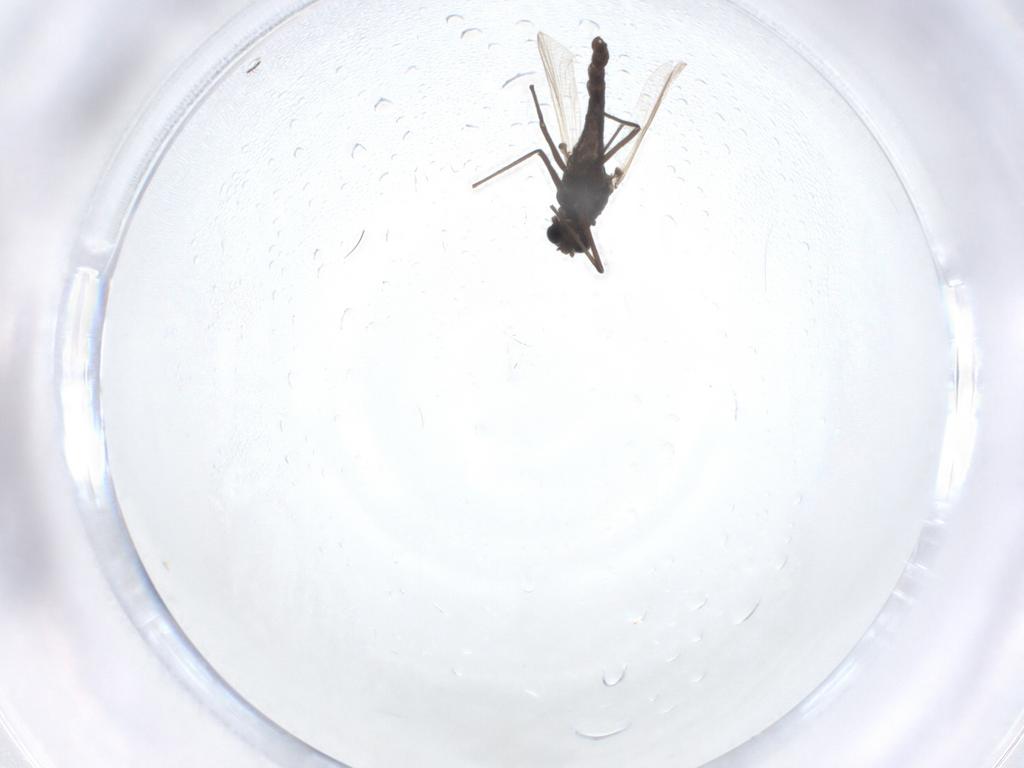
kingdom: Animalia
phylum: Arthropoda
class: Insecta
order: Diptera
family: Chironomidae
